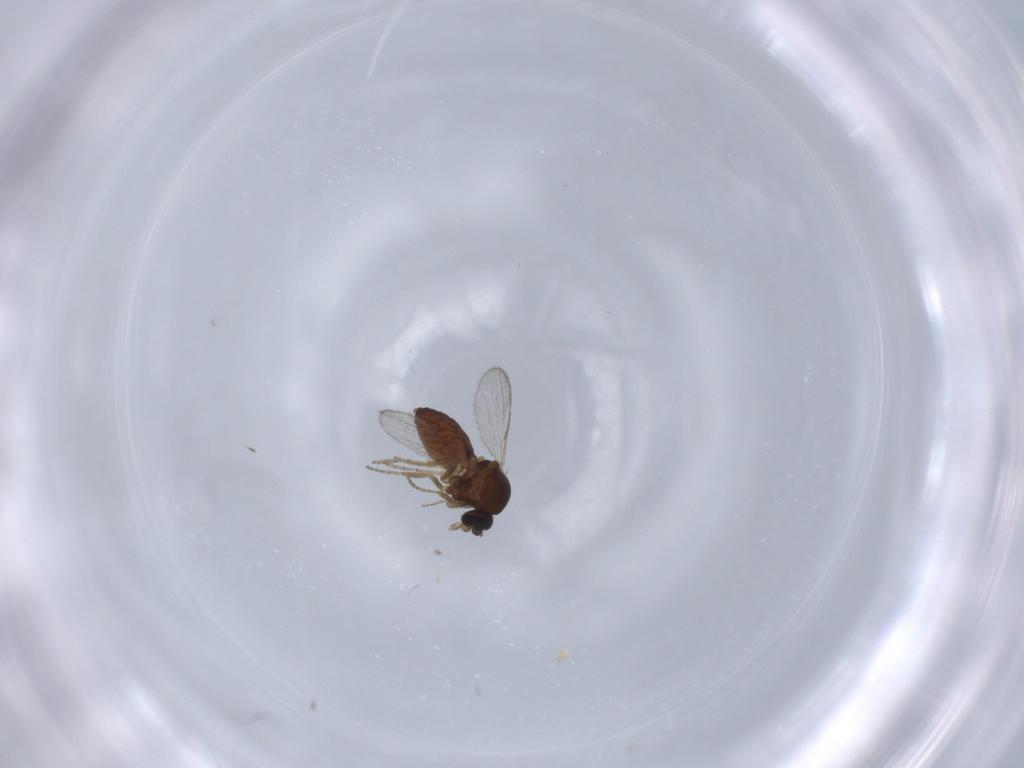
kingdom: Animalia
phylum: Arthropoda
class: Insecta
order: Diptera
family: Ceratopogonidae
